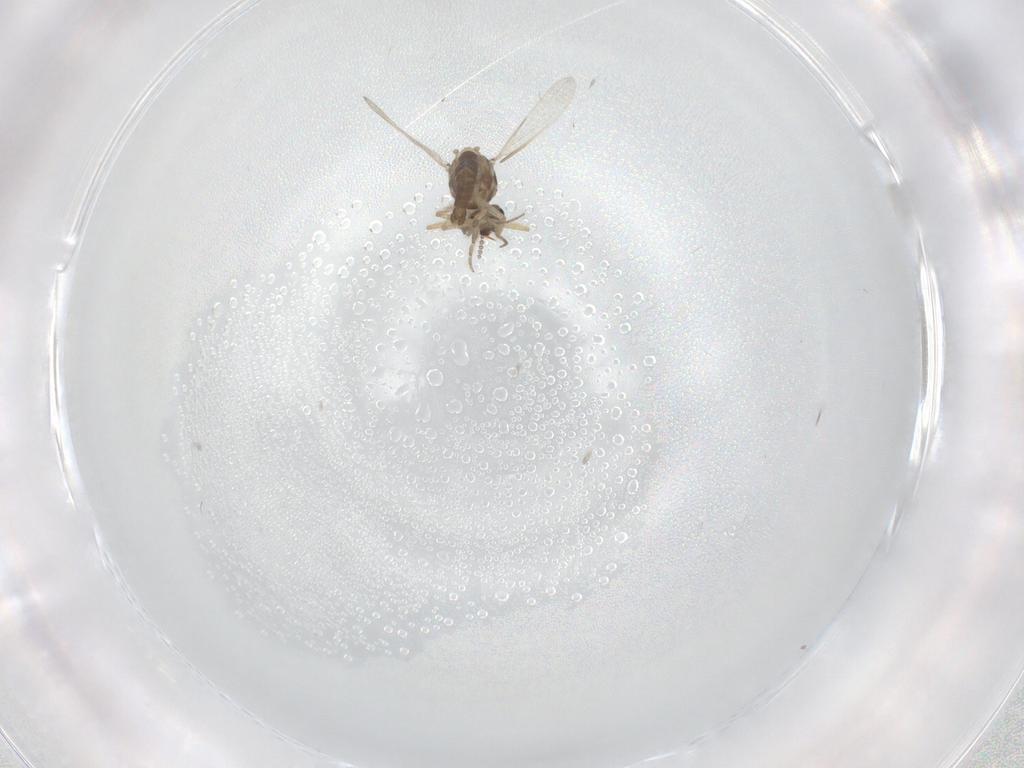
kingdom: Animalia
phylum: Arthropoda
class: Insecta
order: Diptera
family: Ceratopogonidae
